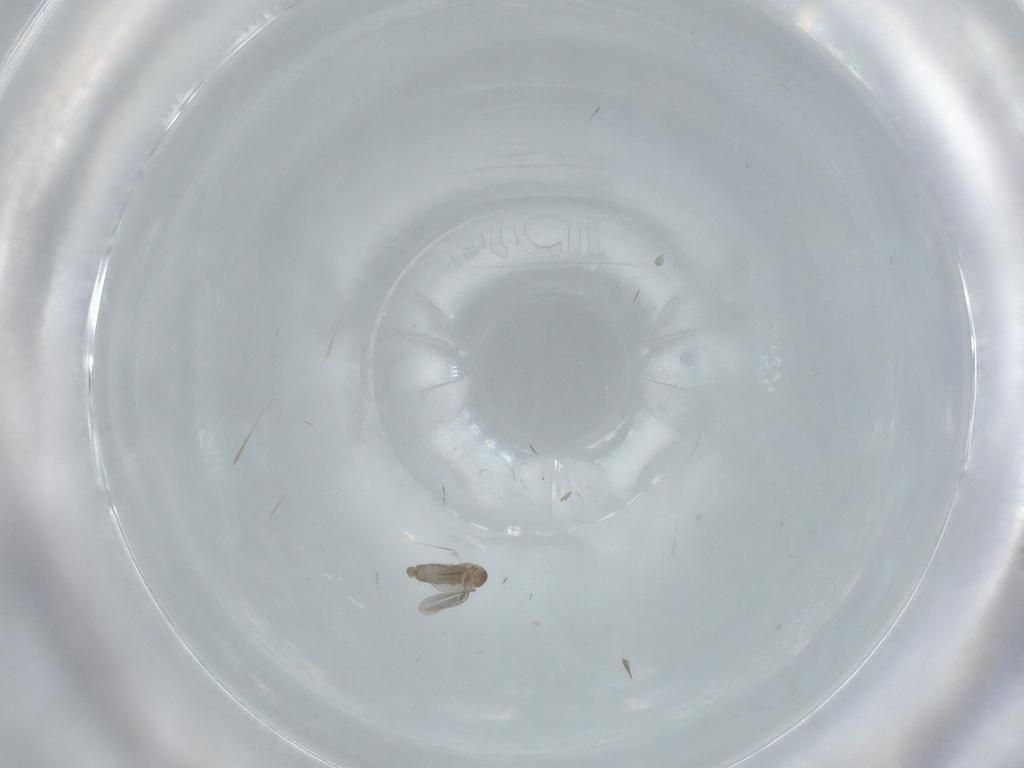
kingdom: Animalia
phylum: Arthropoda
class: Insecta
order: Diptera
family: Cecidomyiidae
